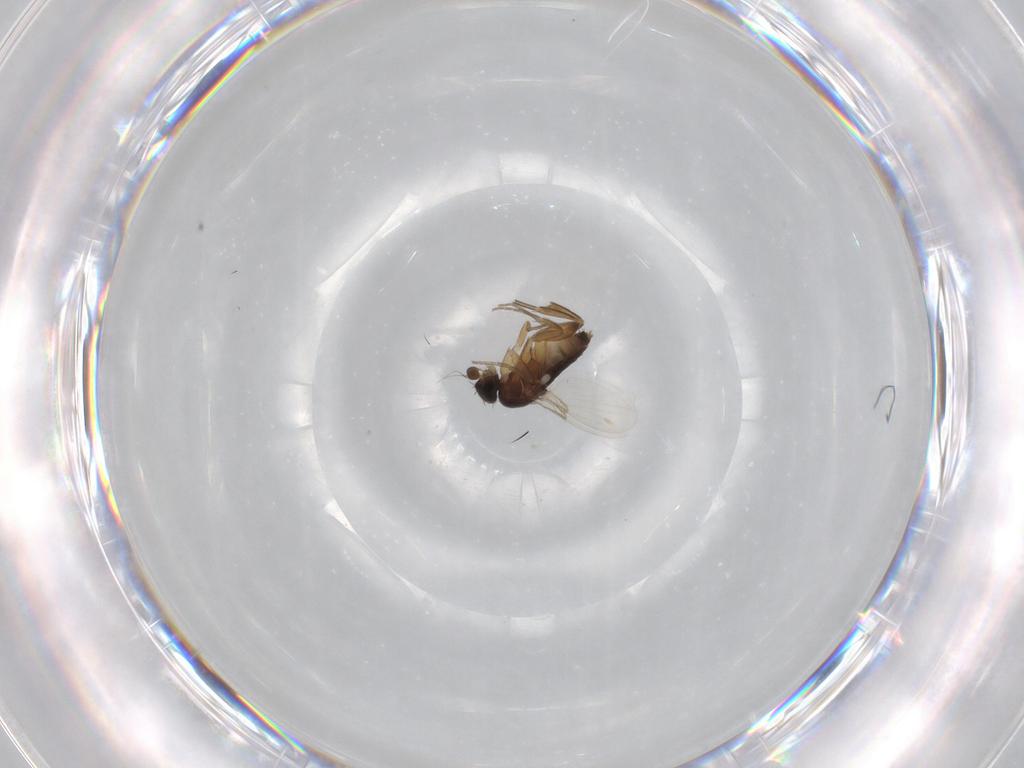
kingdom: Animalia
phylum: Arthropoda
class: Insecta
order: Diptera
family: Phoridae
